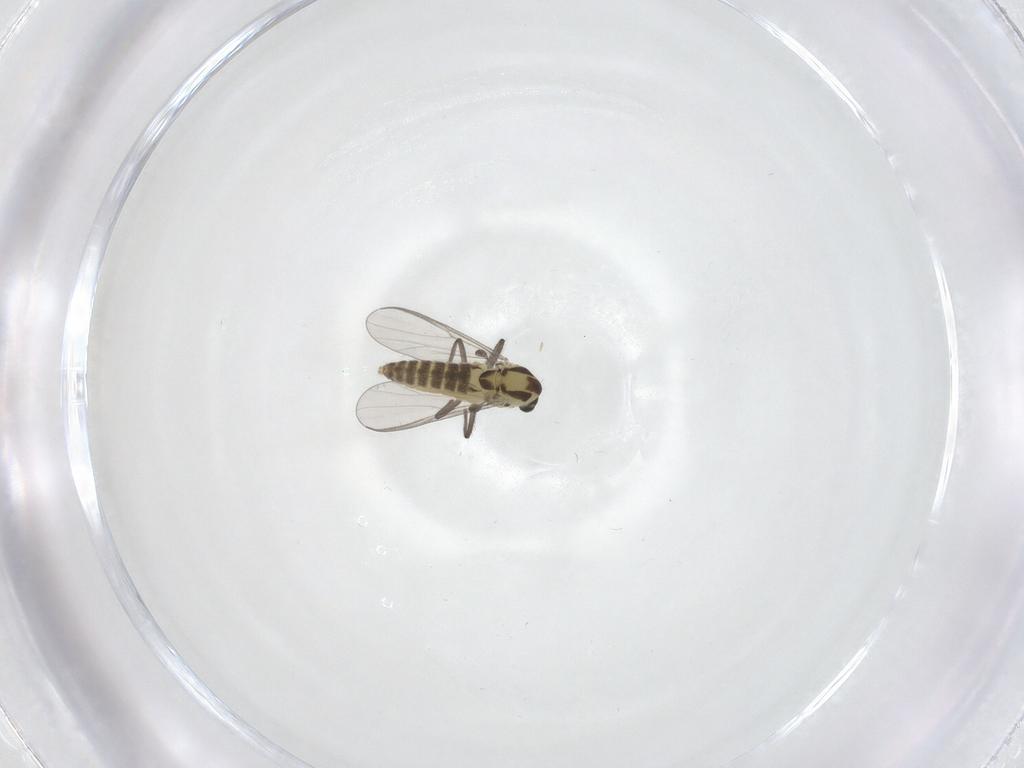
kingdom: Animalia
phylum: Arthropoda
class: Insecta
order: Diptera
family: Chironomidae
